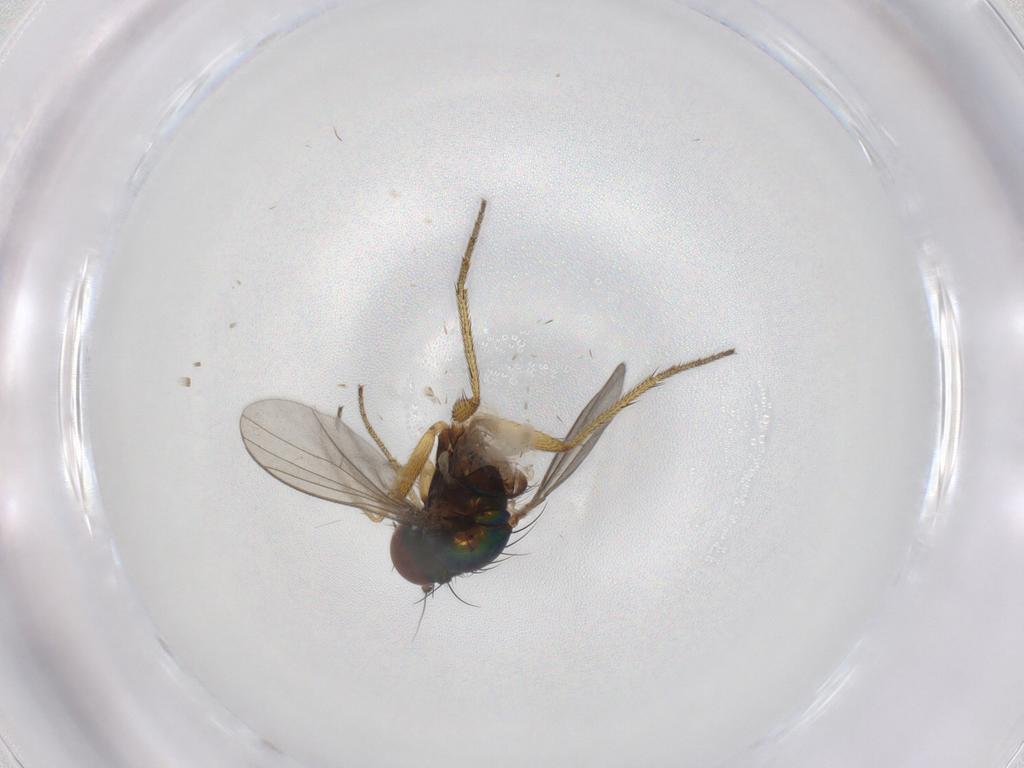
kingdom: Animalia
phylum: Arthropoda
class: Insecta
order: Diptera
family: Chironomidae
